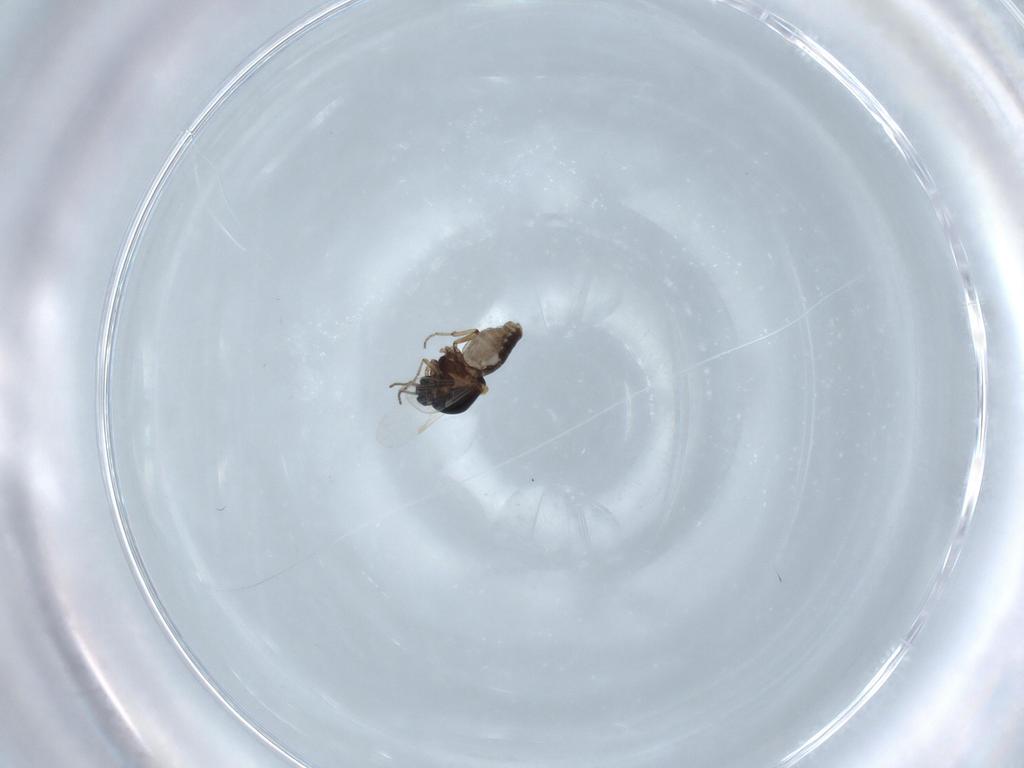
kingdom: Animalia
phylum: Arthropoda
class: Insecta
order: Diptera
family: Ceratopogonidae
